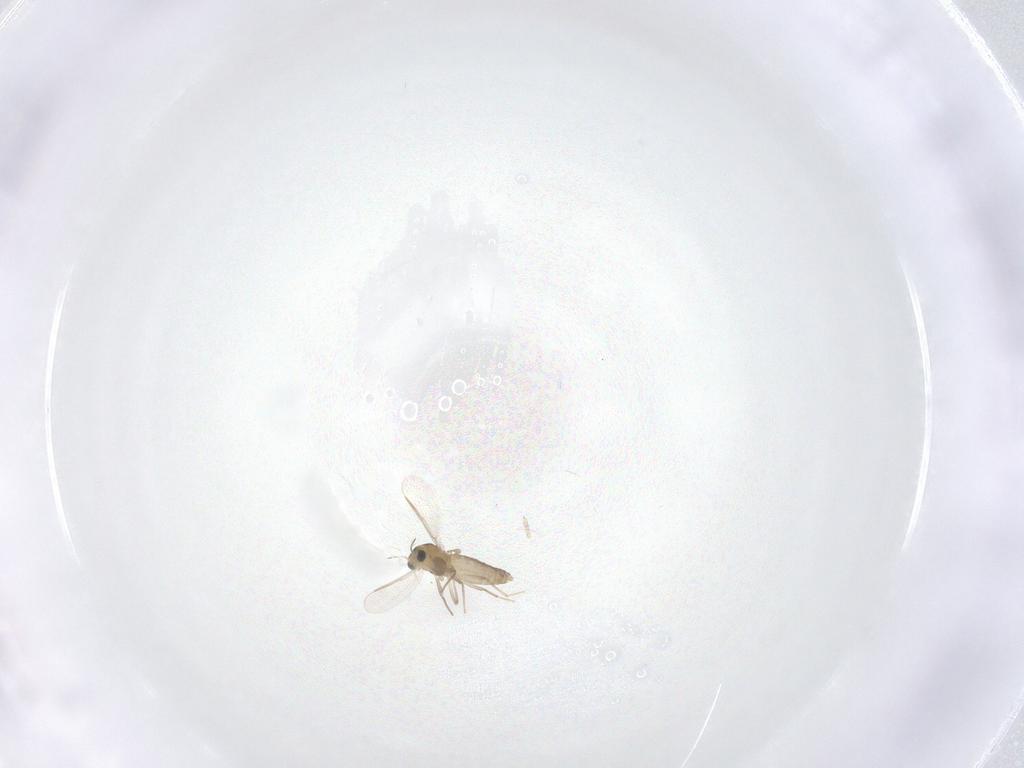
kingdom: Animalia
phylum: Arthropoda
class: Insecta
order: Diptera
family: Chironomidae
